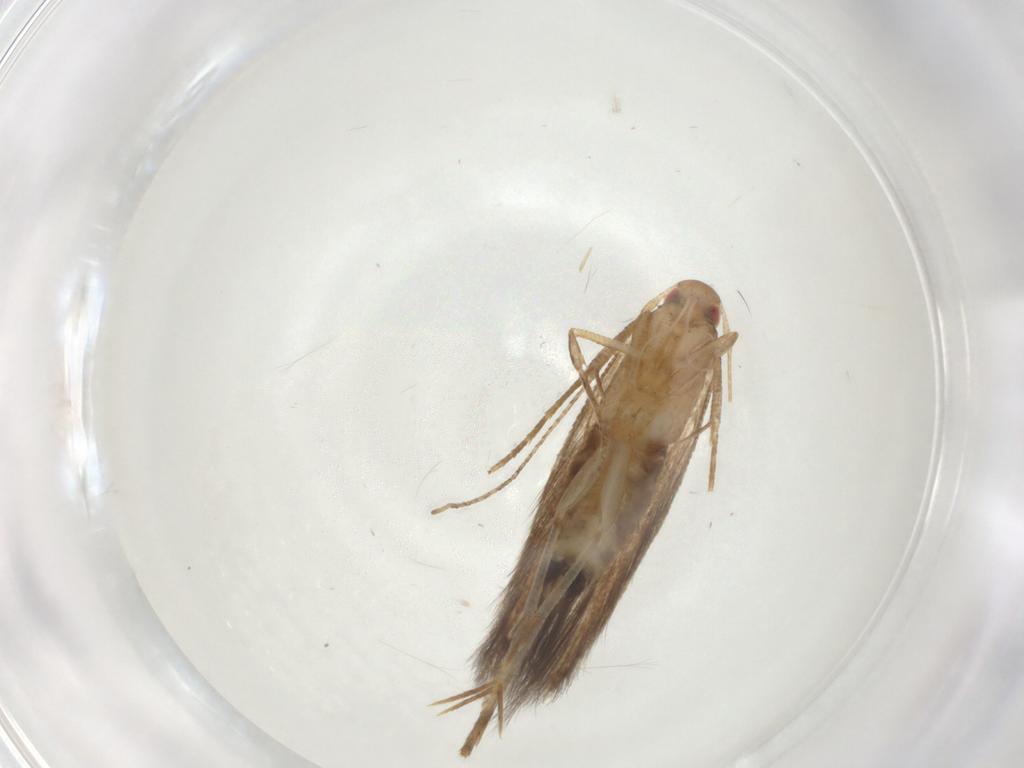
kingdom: Animalia
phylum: Arthropoda
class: Insecta
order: Lepidoptera
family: Cosmopterigidae
